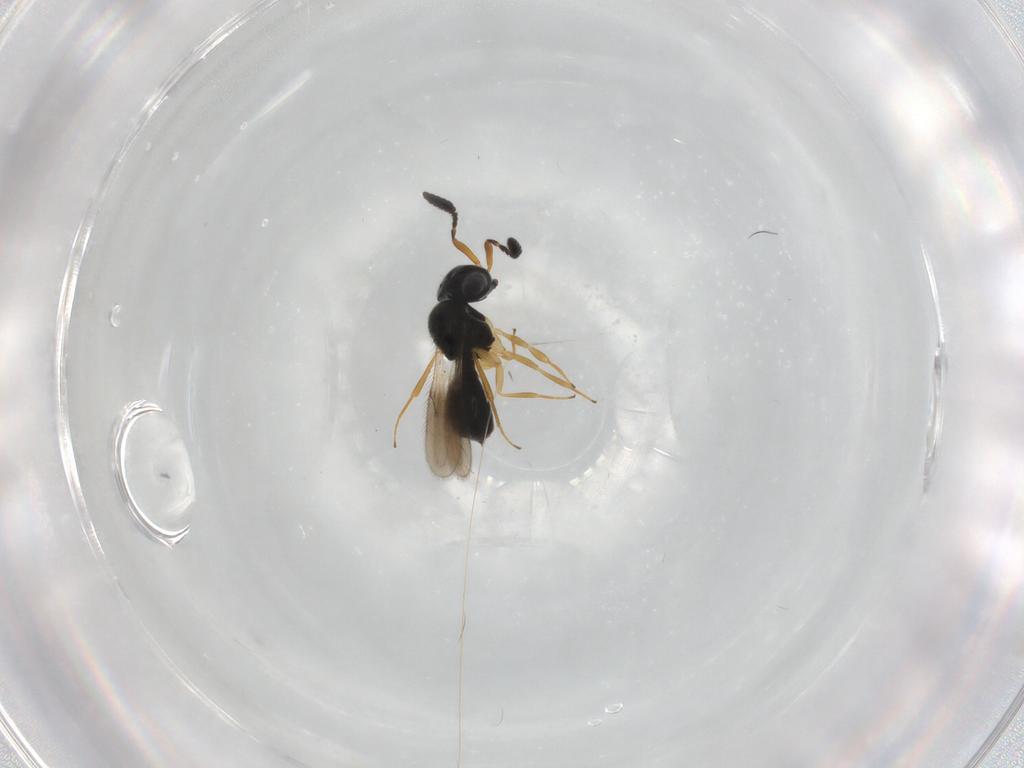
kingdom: Animalia
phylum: Arthropoda
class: Insecta
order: Hymenoptera
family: Scelionidae
